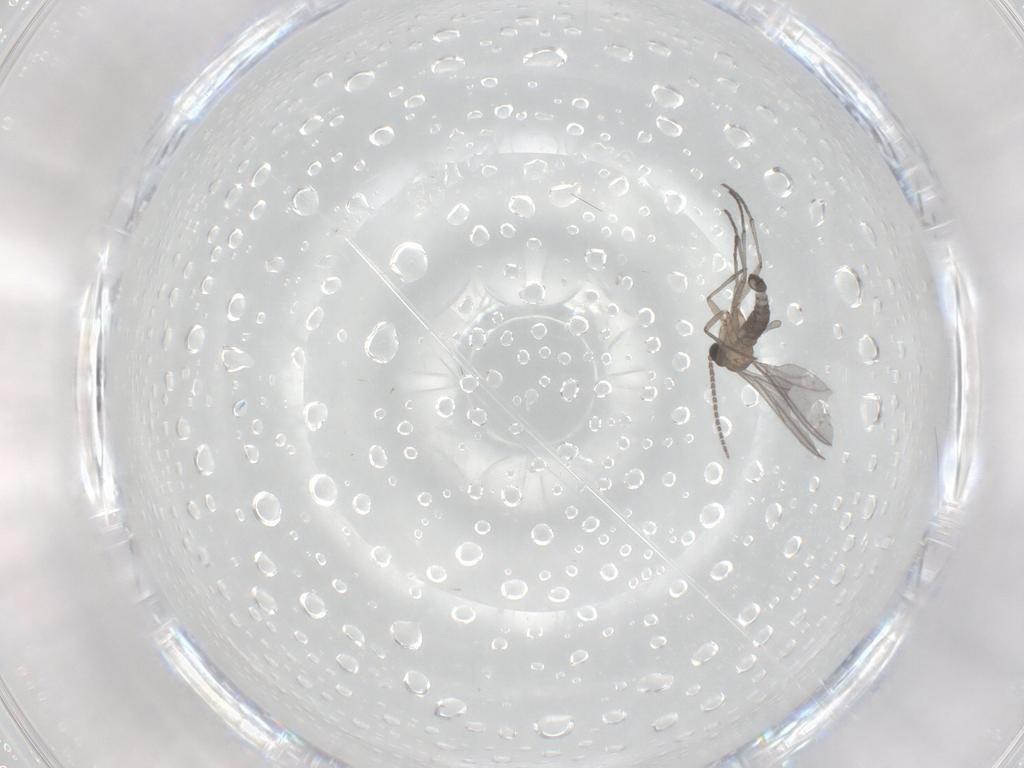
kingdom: Animalia
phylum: Arthropoda
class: Insecta
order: Diptera
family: Sciaridae
